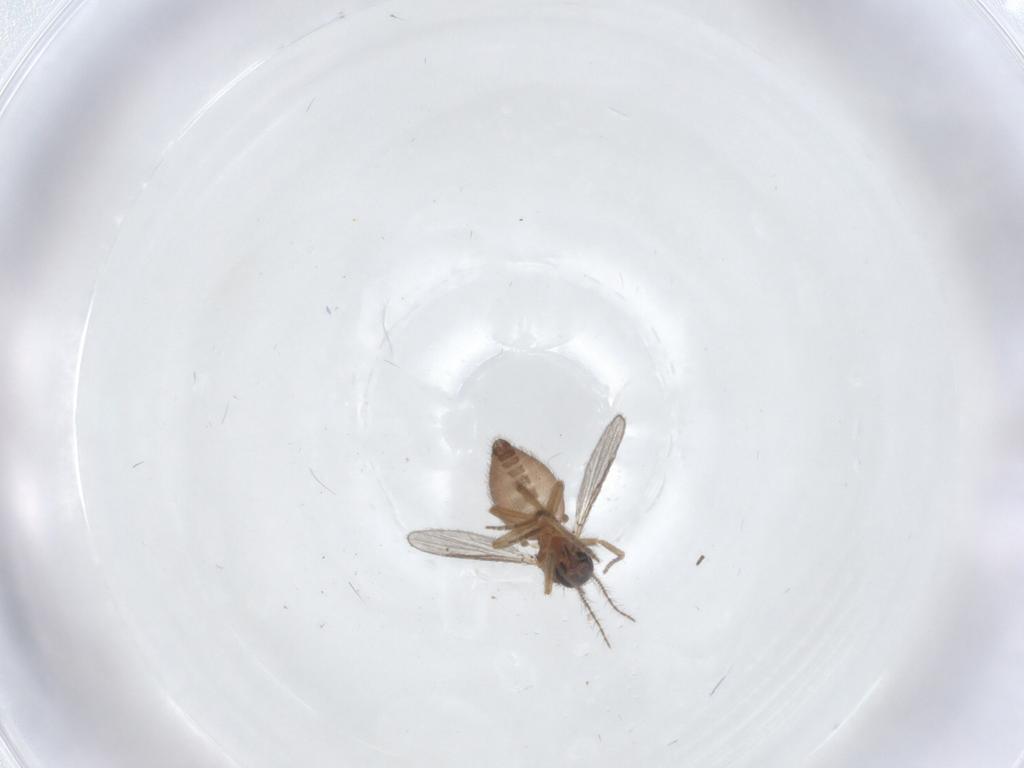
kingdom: Animalia
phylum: Arthropoda
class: Insecta
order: Diptera
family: Ceratopogonidae
